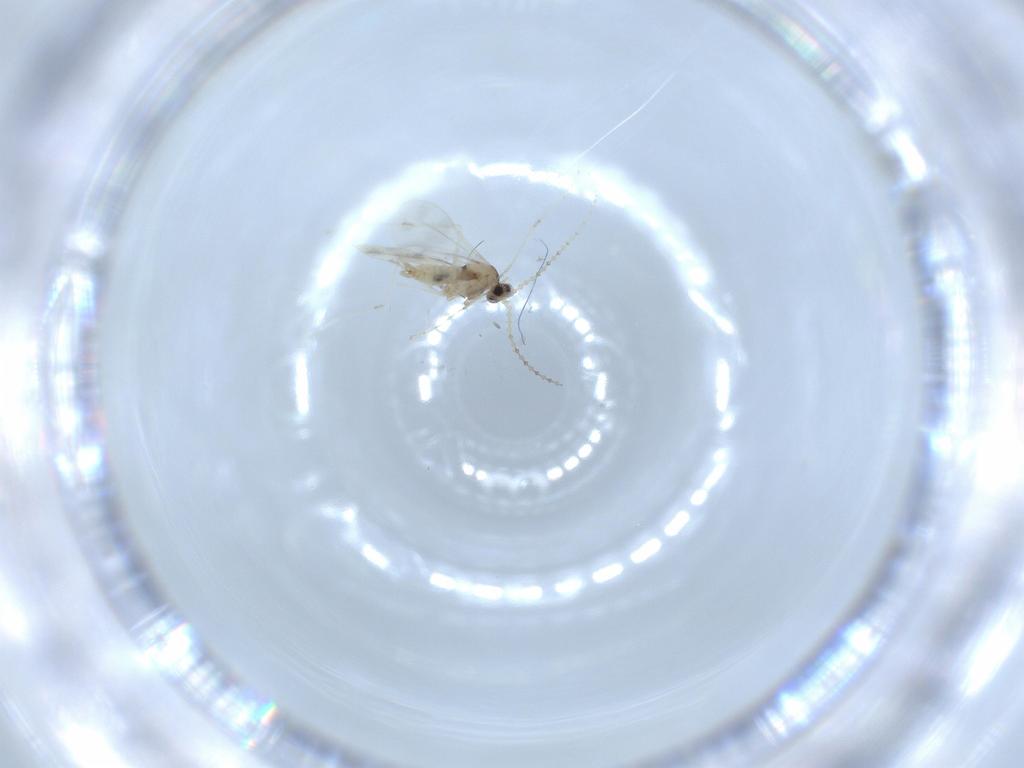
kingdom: Animalia
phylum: Arthropoda
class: Insecta
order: Diptera
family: Cecidomyiidae
